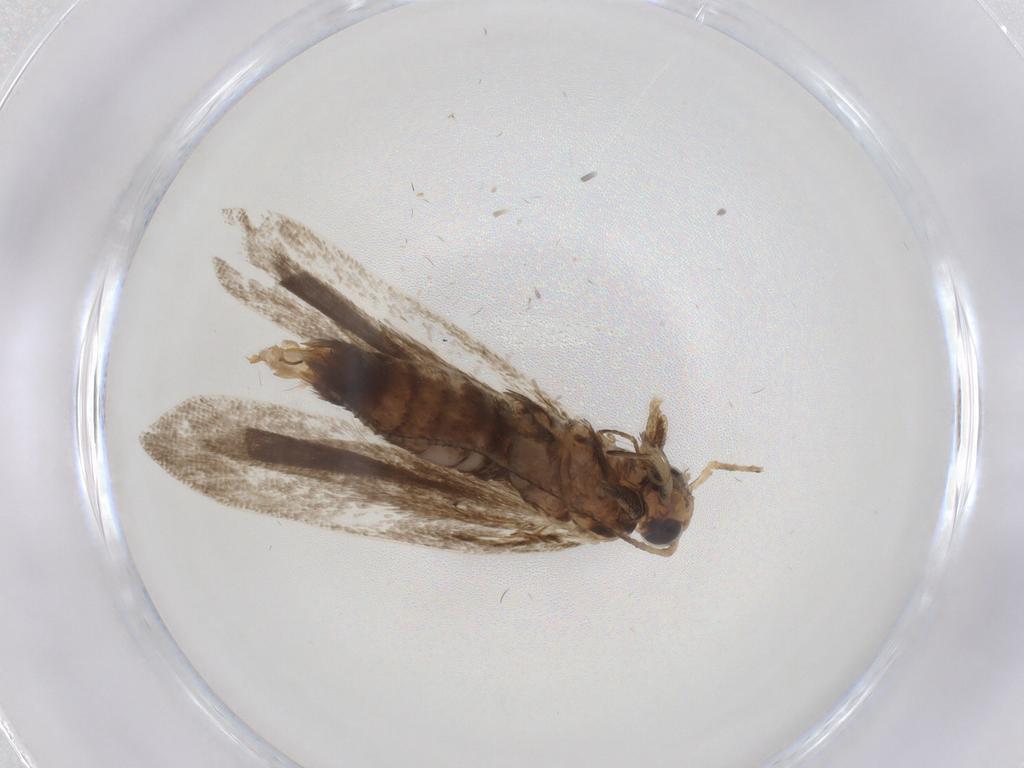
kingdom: Animalia
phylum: Arthropoda
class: Insecta
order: Lepidoptera
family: Gelechiidae
